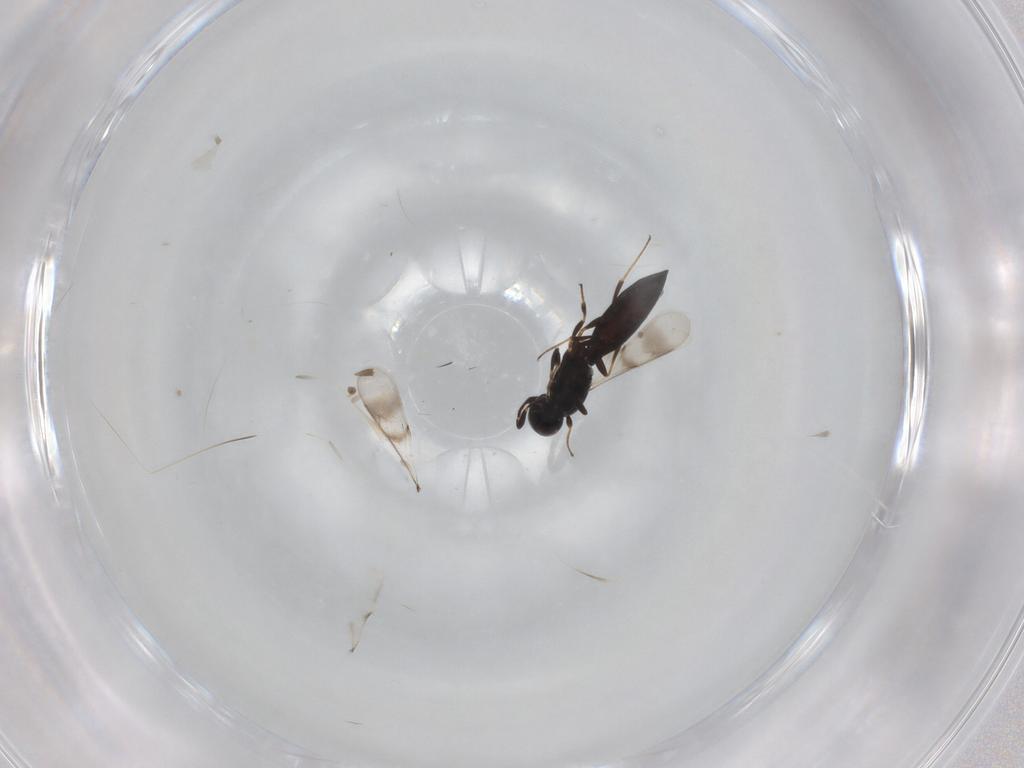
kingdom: Animalia
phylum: Arthropoda
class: Insecta
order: Hymenoptera
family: Scelionidae
